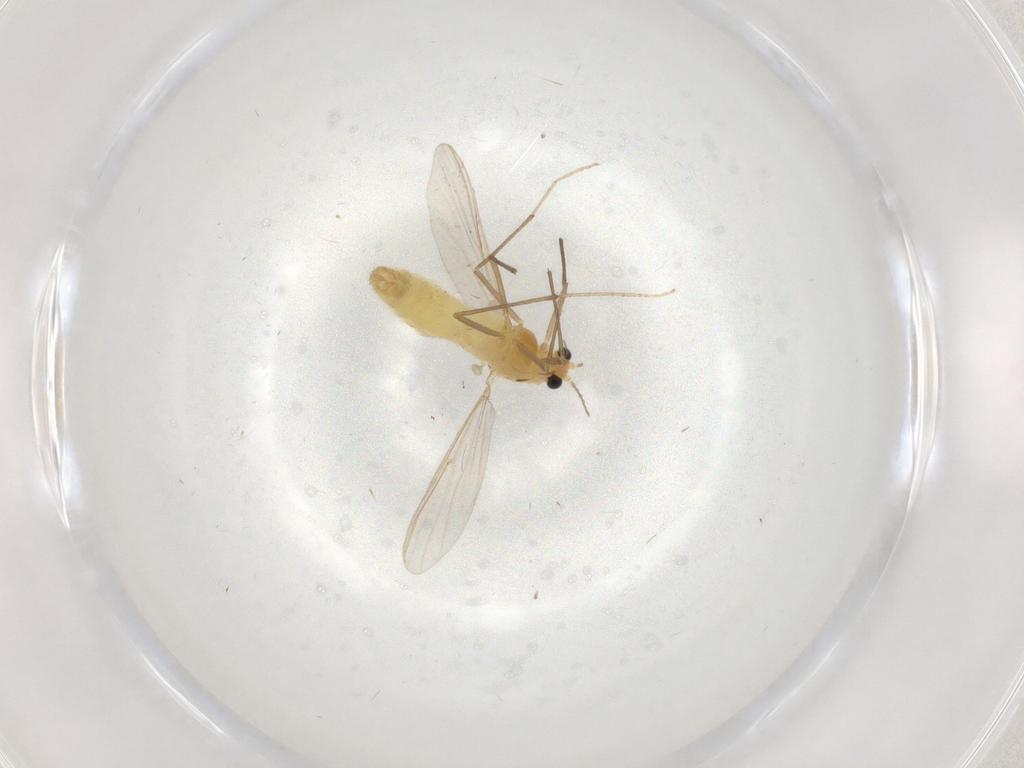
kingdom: Animalia
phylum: Arthropoda
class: Insecta
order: Diptera
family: Chironomidae
